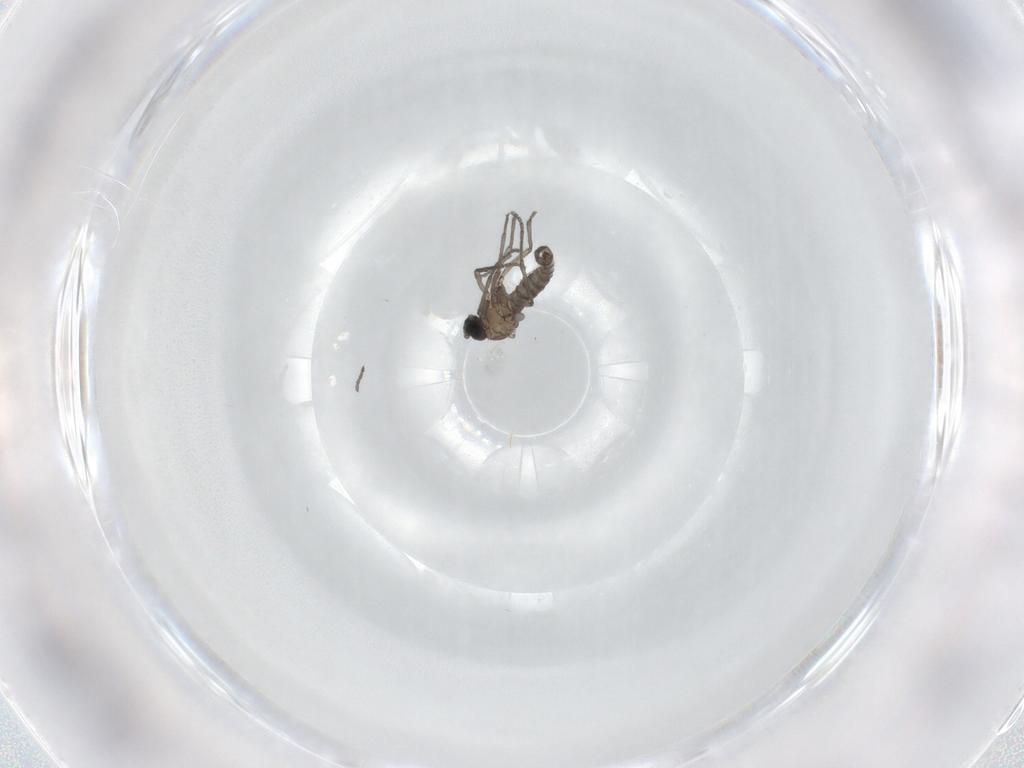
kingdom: Animalia
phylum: Arthropoda
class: Insecta
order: Diptera
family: Sciaridae
